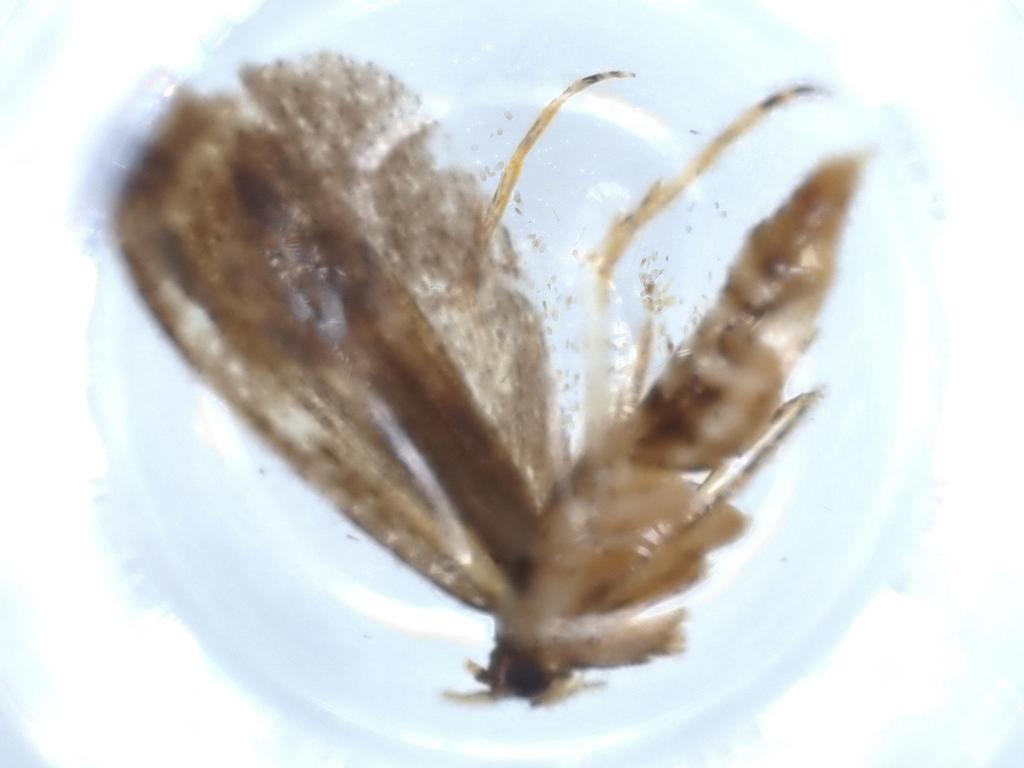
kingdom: Animalia
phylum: Arthropoda
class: Insecta
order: Lepidoptera
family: Tineidae
